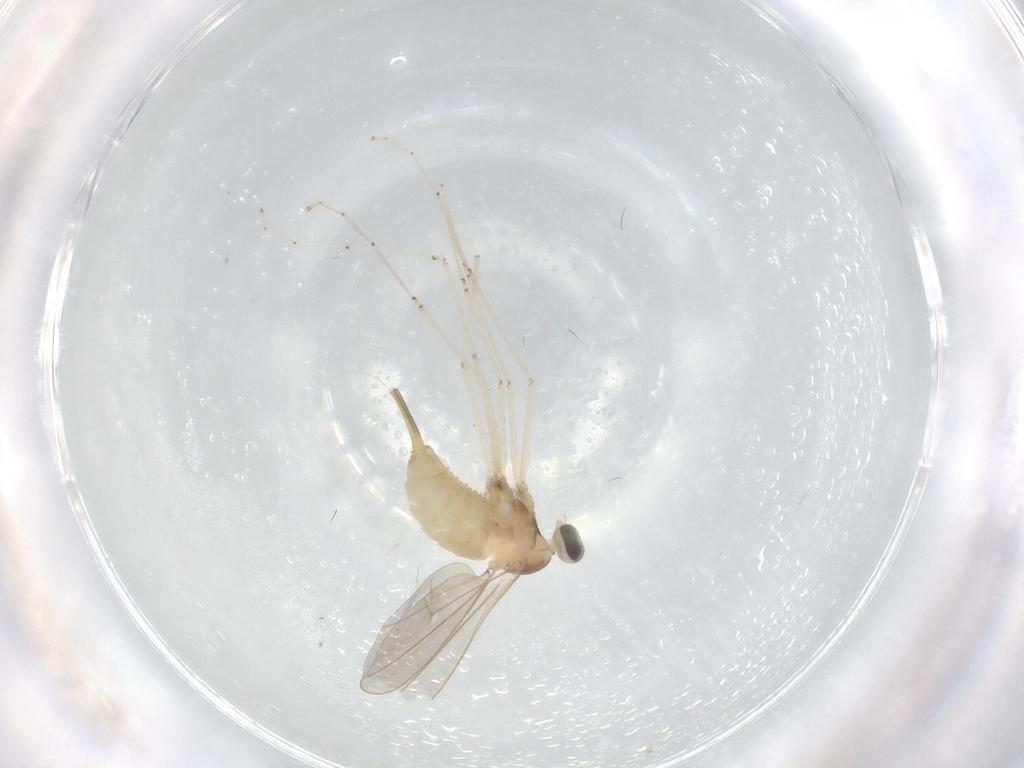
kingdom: Animalia
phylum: Arthropoda
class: Insecta
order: Diptera
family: Cecidomyiidae
